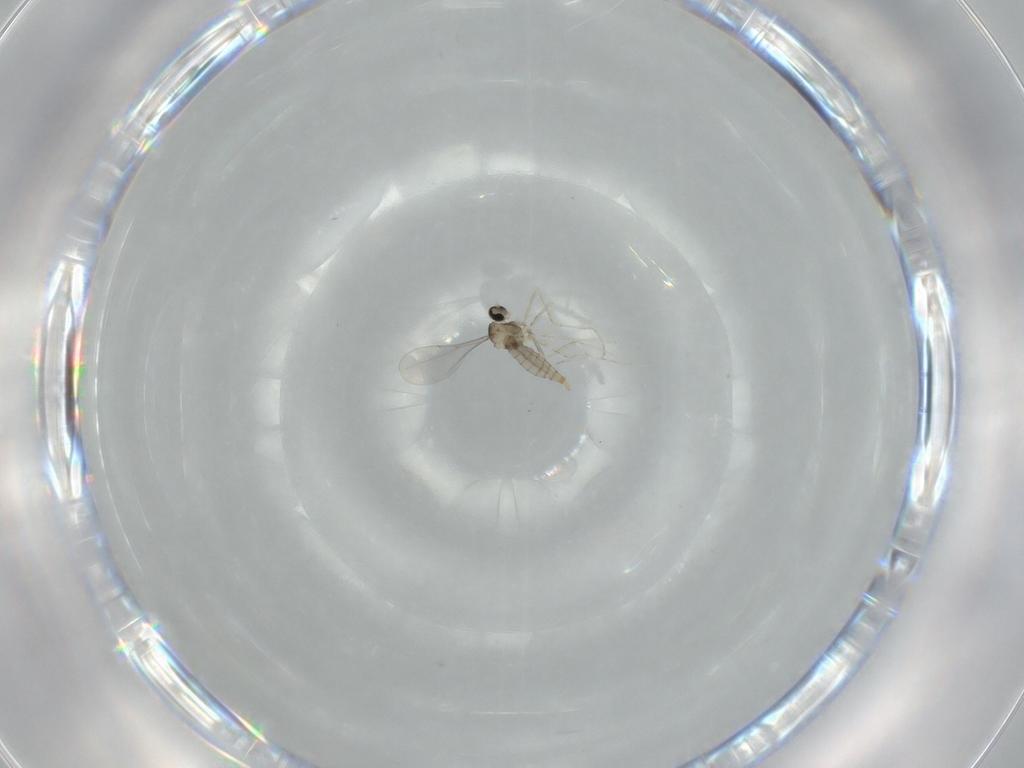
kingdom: Animalia
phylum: Arthropoda
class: Insecta
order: Diptera
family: Cecidomyiidae
